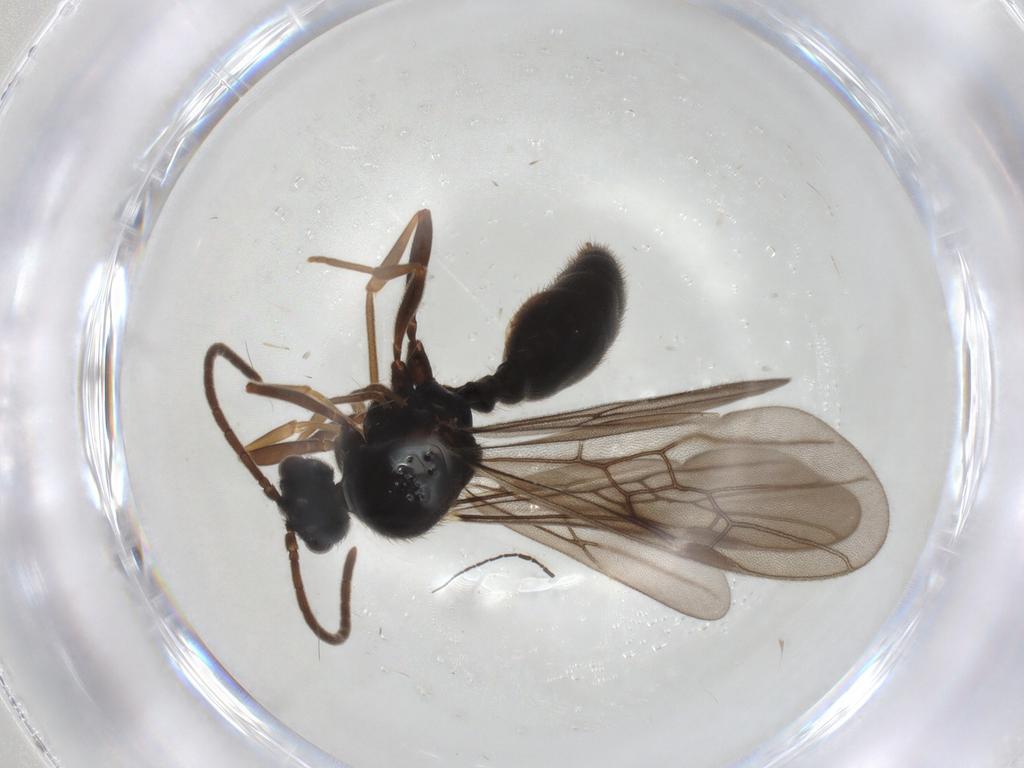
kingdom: Animalia
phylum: Arthropoda
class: Insecta
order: Hymenoptera
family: Formicidae
